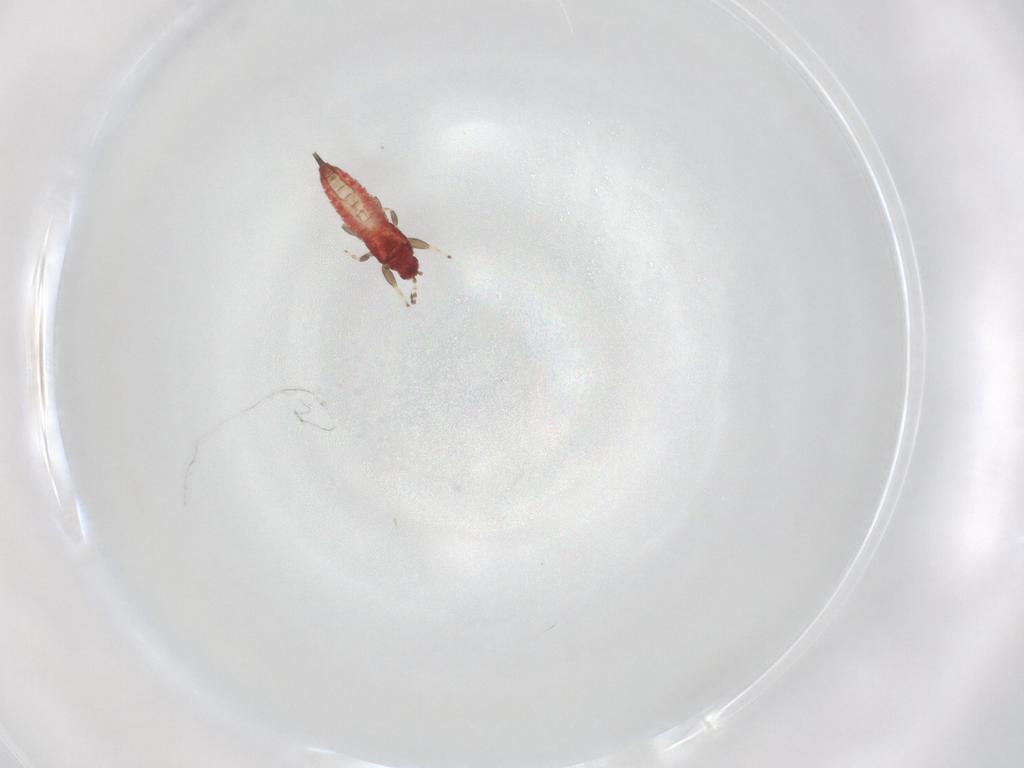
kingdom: Animalia
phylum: Arthropoda
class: Insecta
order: Thysanoptera
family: Phlaeothripidae
